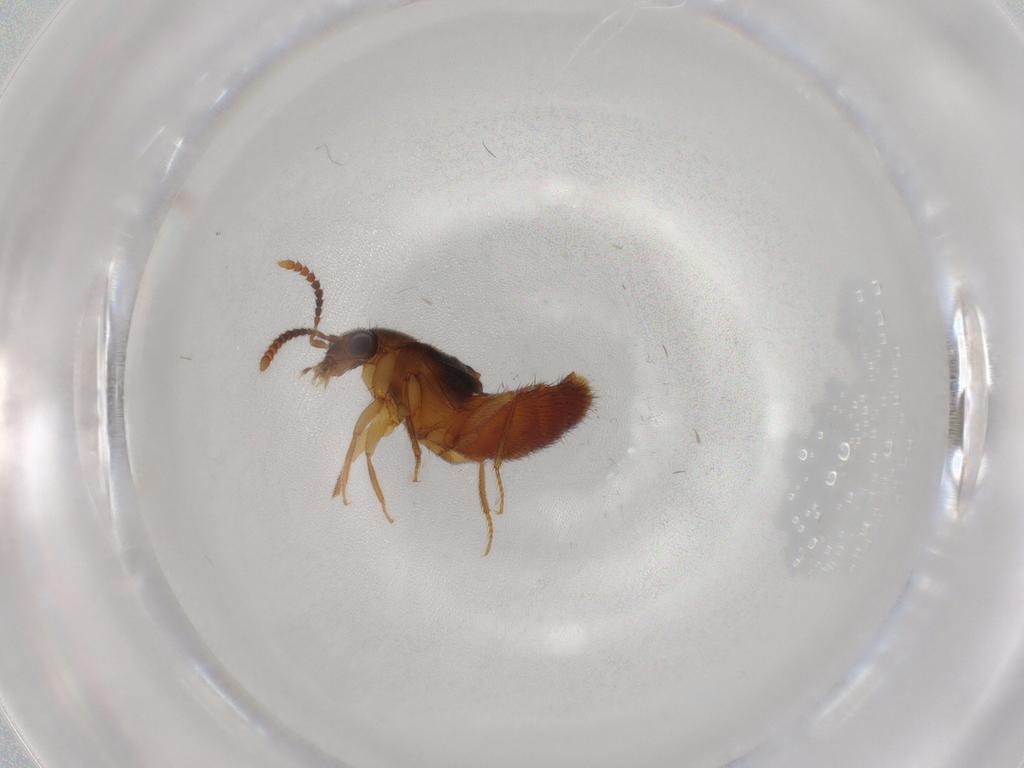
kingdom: Animalia
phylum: Arthropoda
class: Insecta
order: Coleoptera
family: Staphylinidae
